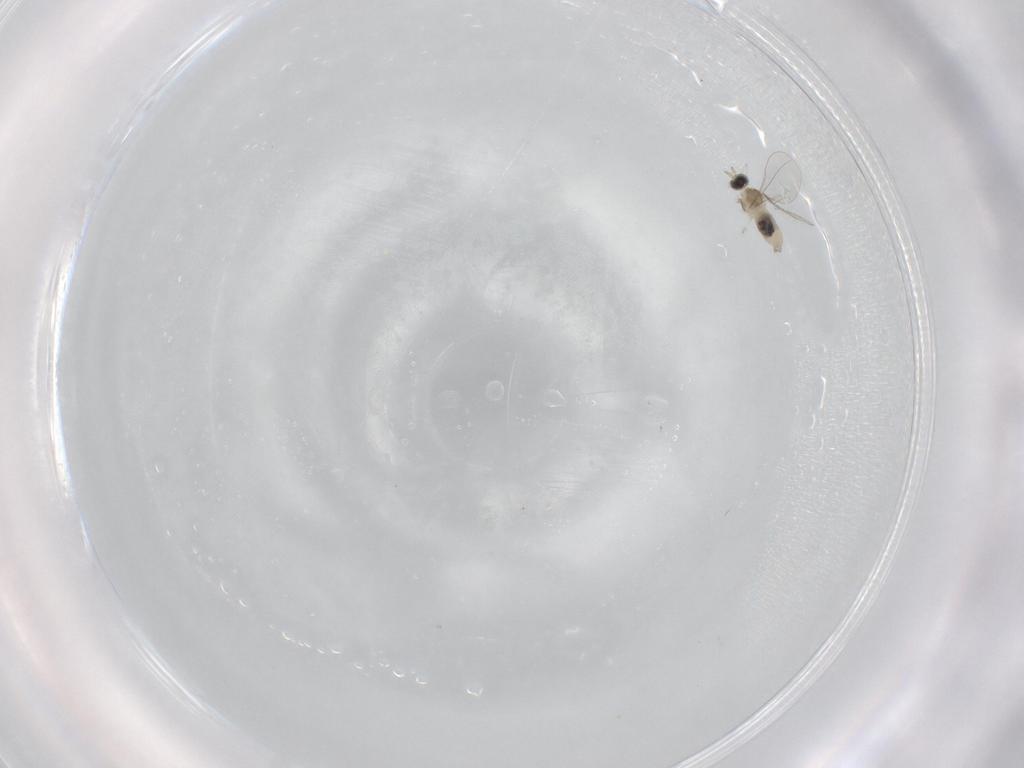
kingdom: Animalia
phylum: Arthropoda
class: Insecta
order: Diptera
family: Cecidomyiidae
